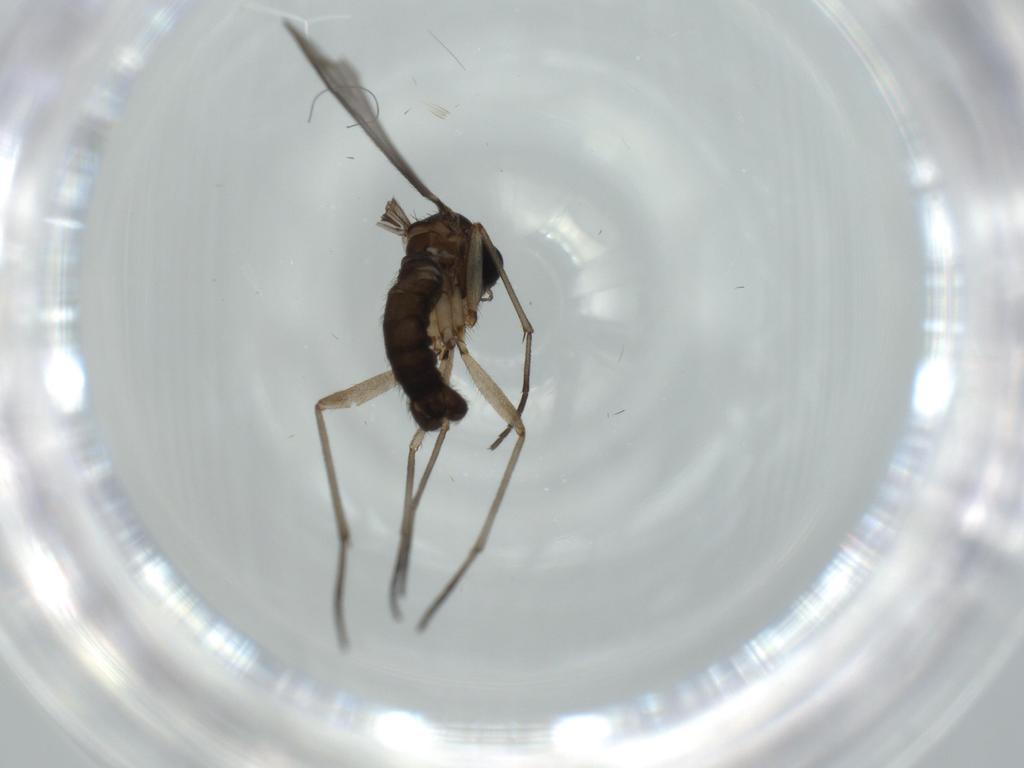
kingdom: Animalia
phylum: Arthropoda
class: Insecta
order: Diptera
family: Sciaridae
